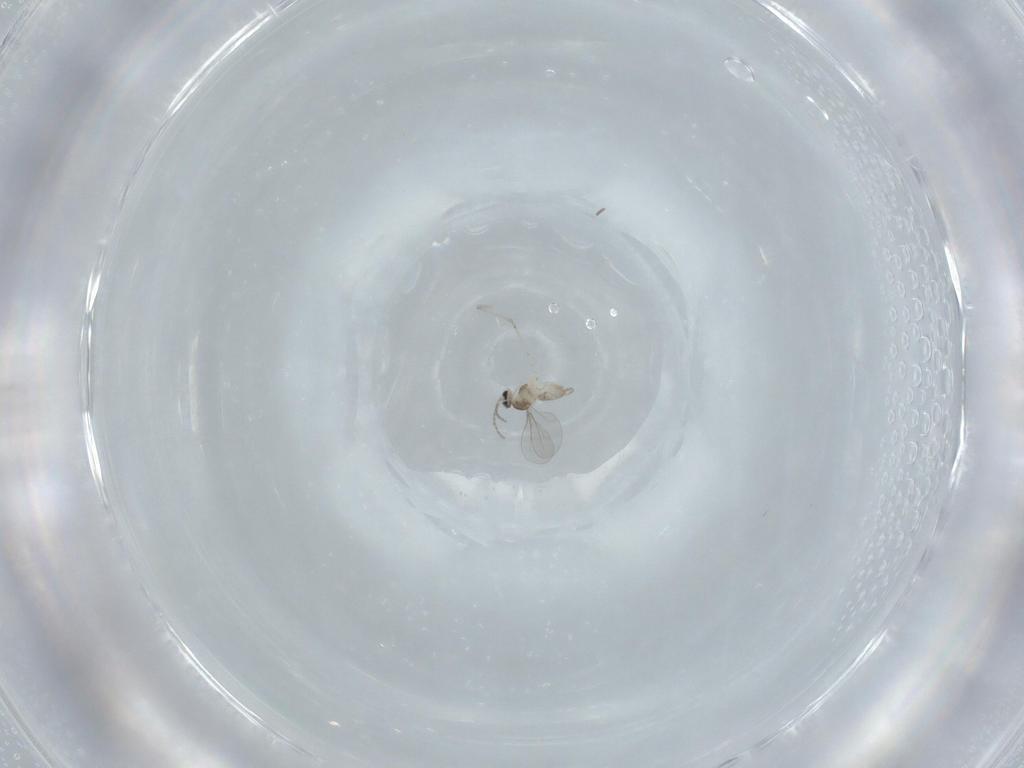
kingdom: Animalia
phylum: Arthropoda
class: Insecta
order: Diptera
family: Cecidomyiidae
